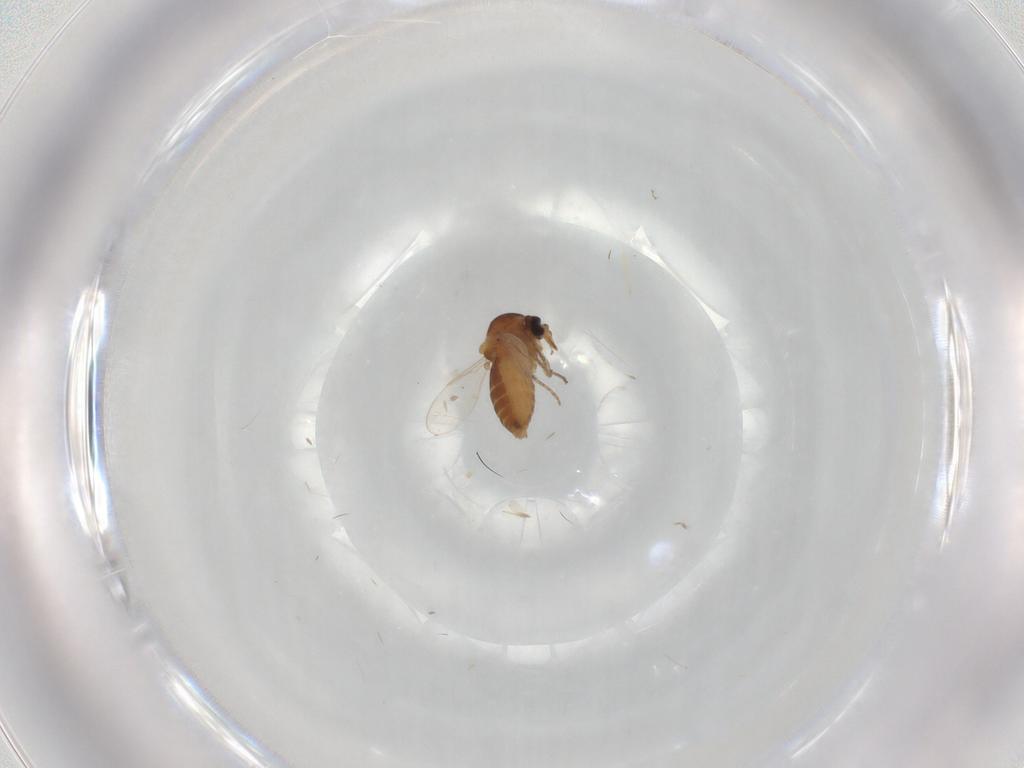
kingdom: Animalia
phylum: Arthropoda
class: Insecta
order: Diptera
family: Ceratopogonidae
